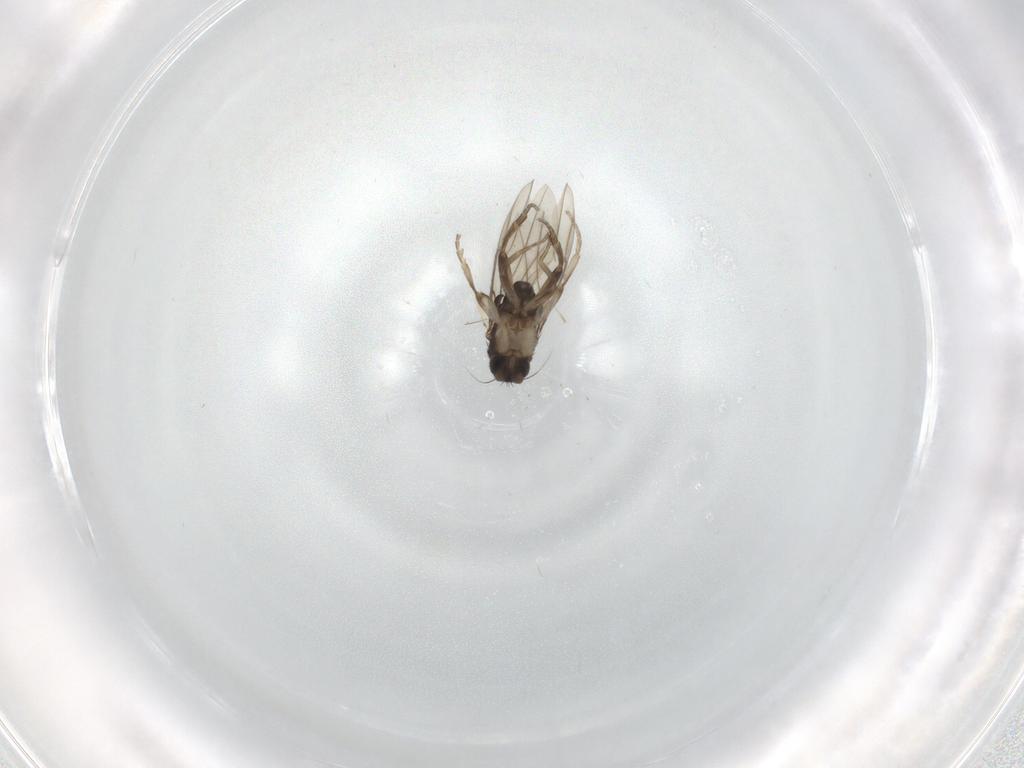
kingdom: Animalia
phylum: Arthropoda
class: Insecta
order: Diptera
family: Chironomidae
